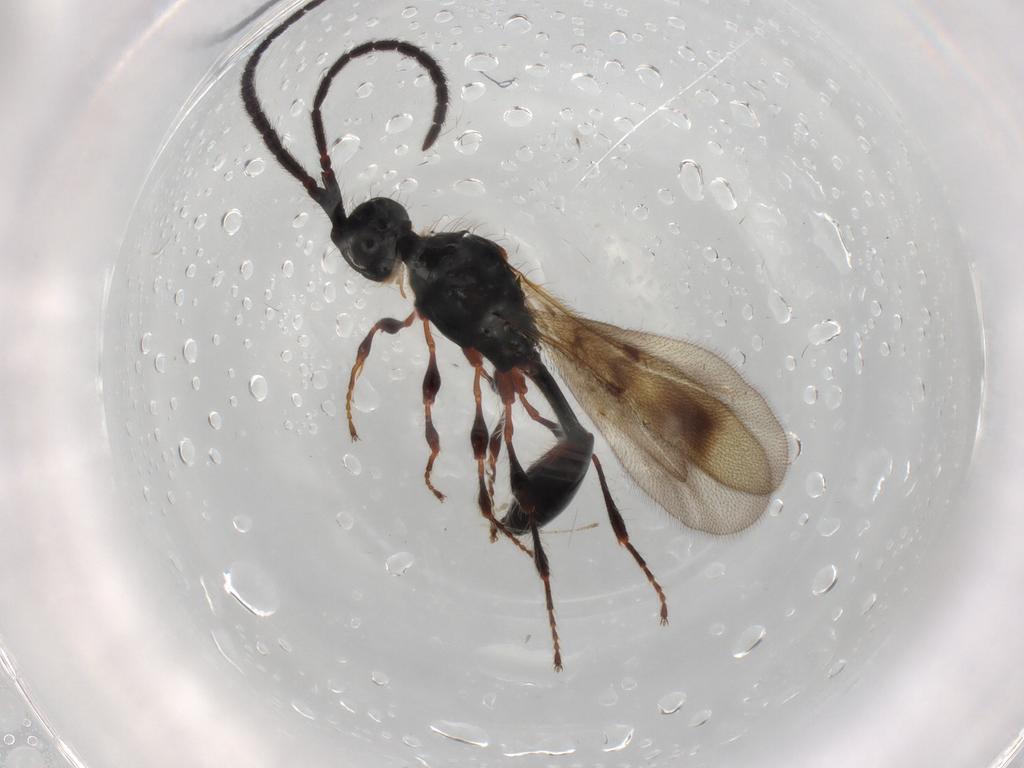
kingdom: Animalia
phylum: Arthropoda
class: Insecta
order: Hymenoptera
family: Diapriidae
